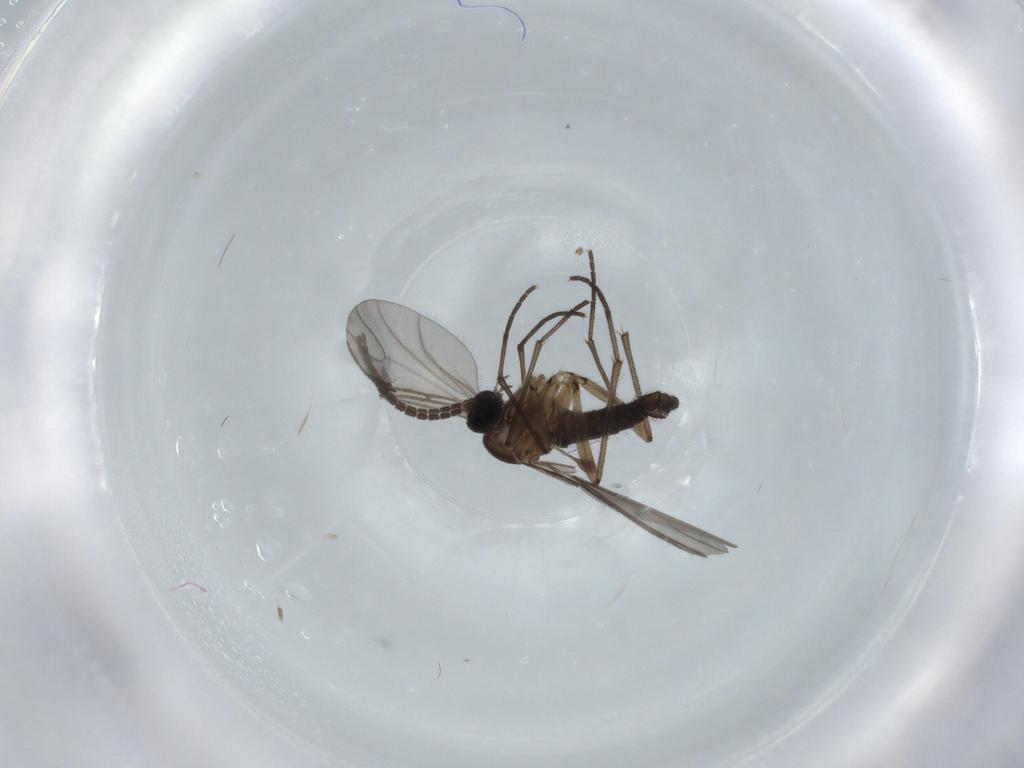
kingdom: Animalia
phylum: Arthropoda
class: Insecta
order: Diptera
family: Sciaridae
